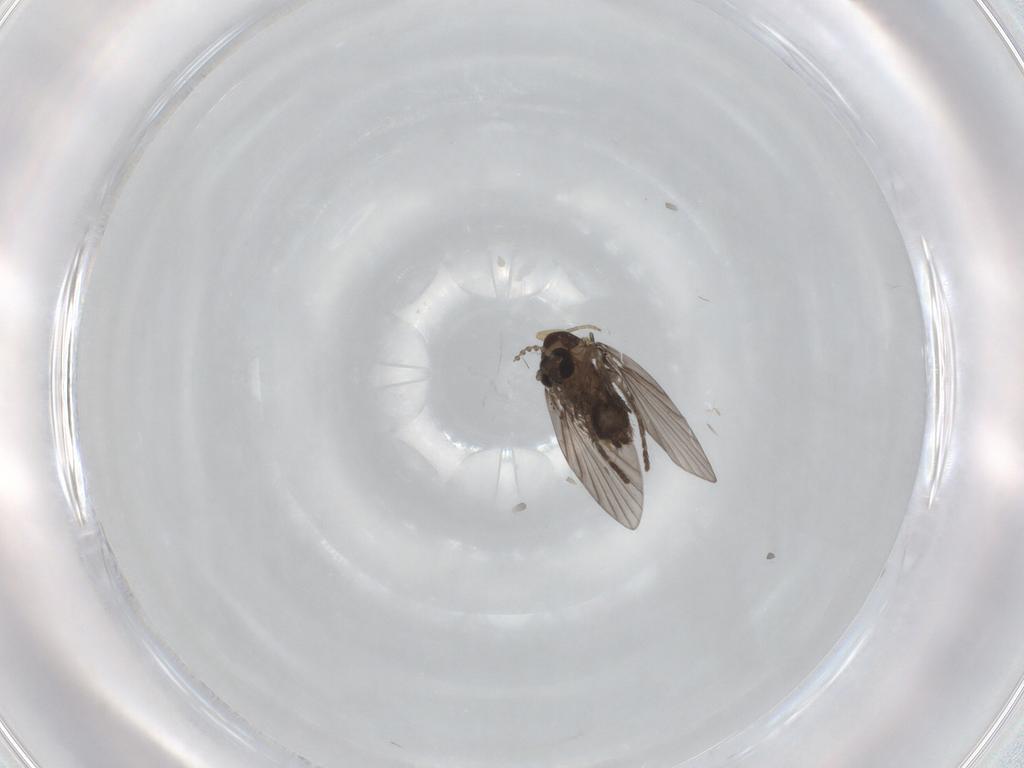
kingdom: Animalia
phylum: Arthropoda
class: Insecta
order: Diptera
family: Psychodidae
